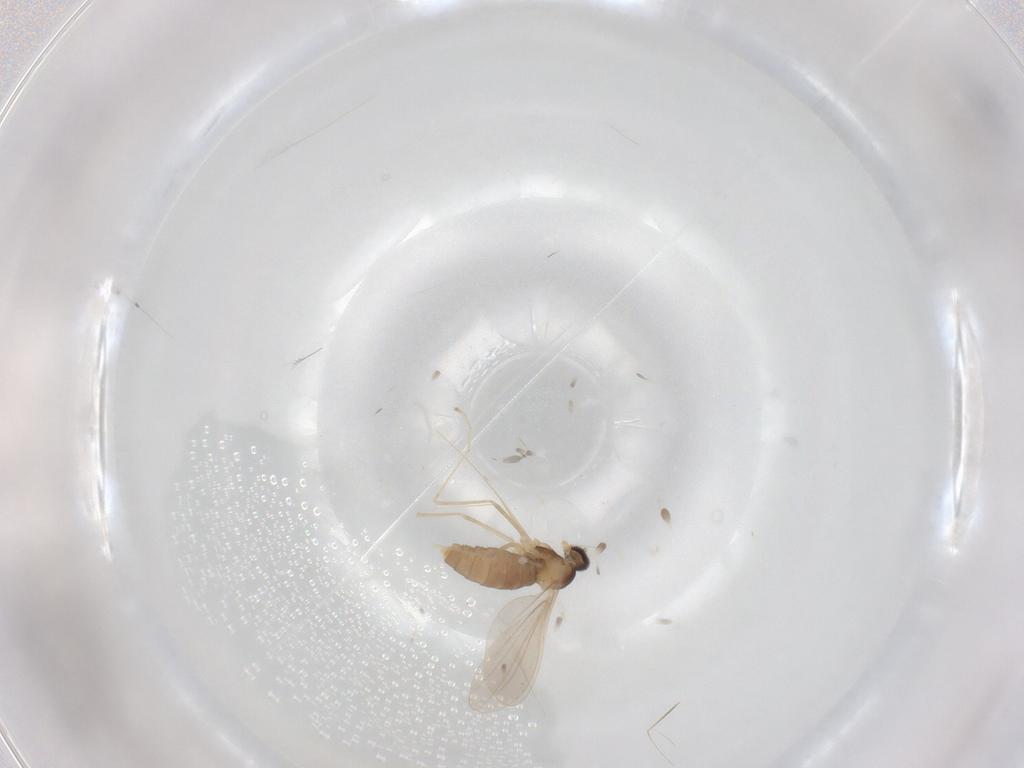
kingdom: Animalia
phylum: Arthropoda
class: Insecta
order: Diptera
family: Cecidomyiidae
